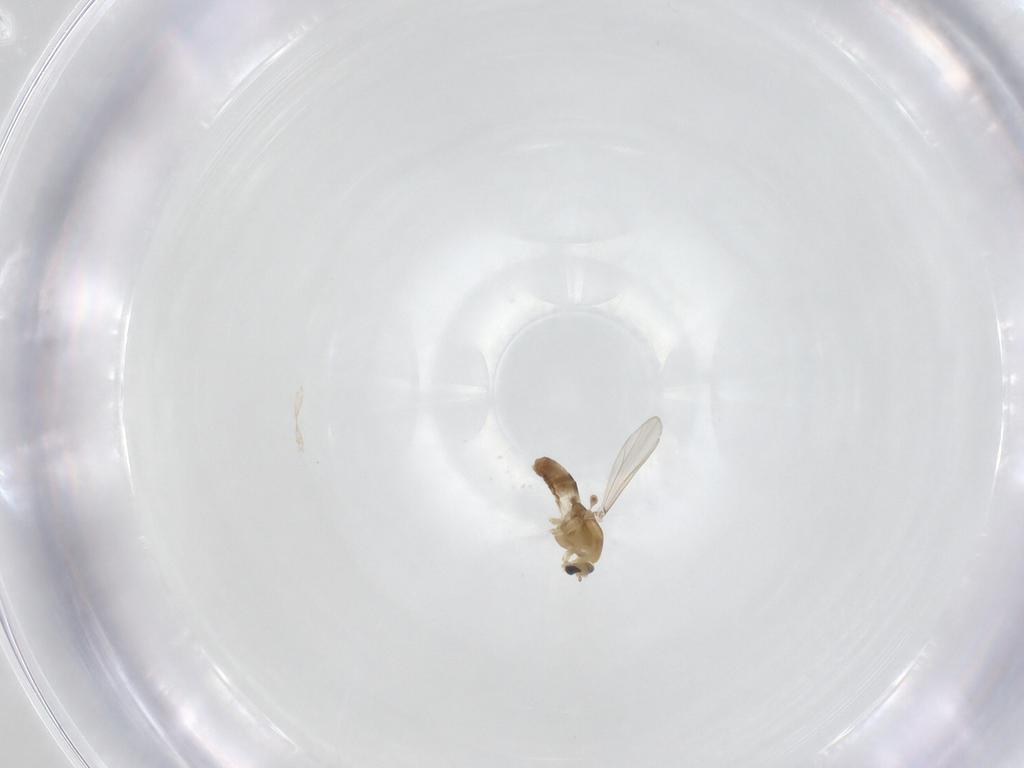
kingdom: Animalia
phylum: Arthropoda
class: Insecta
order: Diptera
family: Chironomidae
